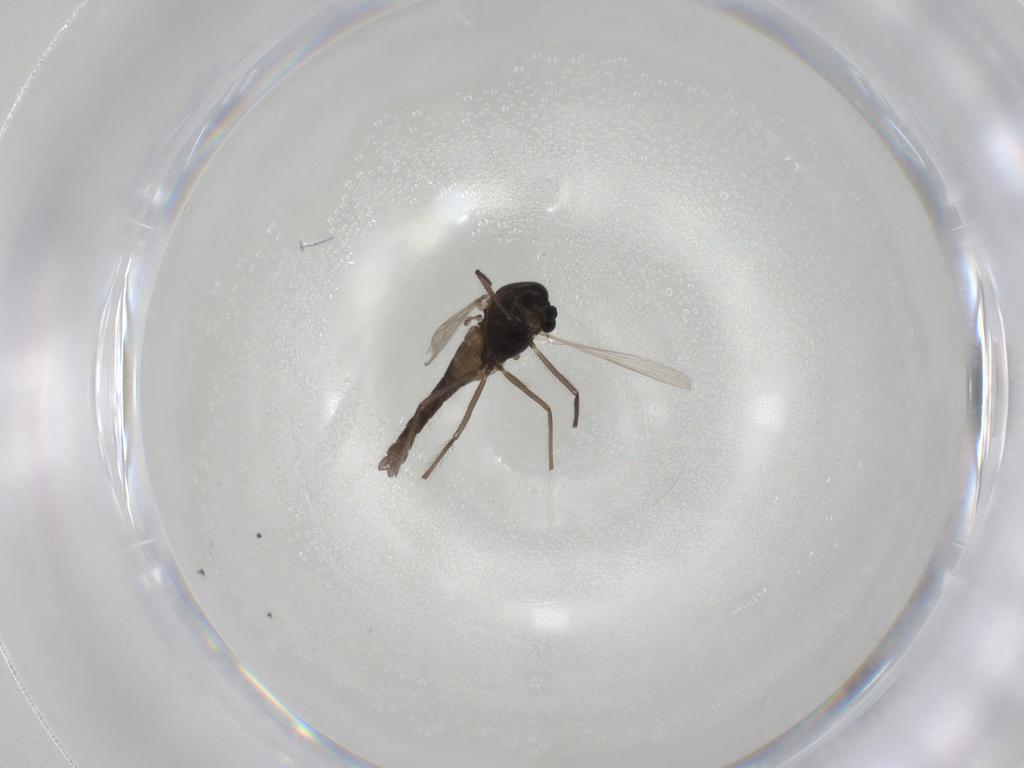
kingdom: Animalia
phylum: Arthropoda
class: Insecta
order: Diptera
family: Chironomidae
